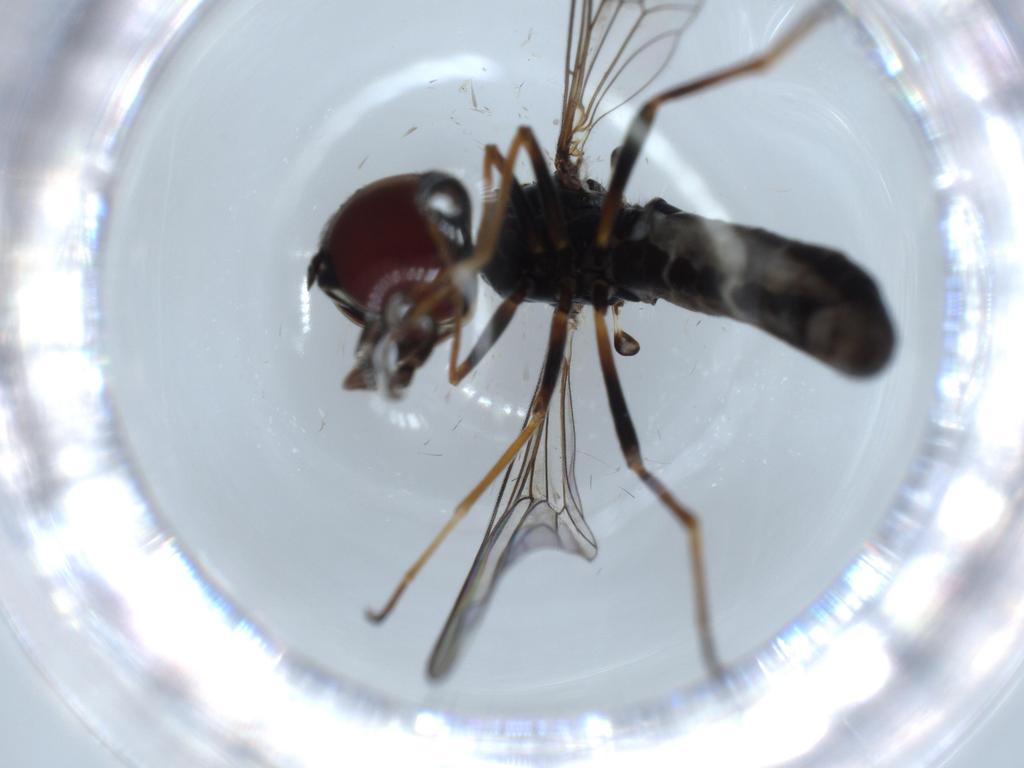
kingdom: Animalia
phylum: Arthropoda
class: Insecta
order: Diptera
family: Bombyliidae
